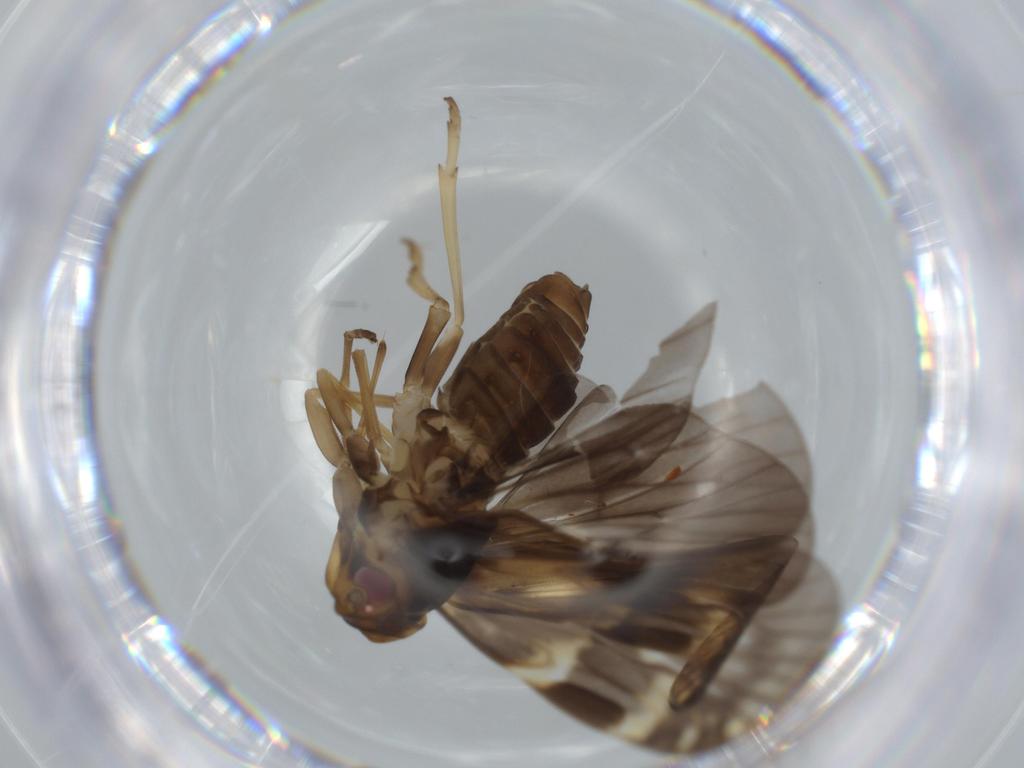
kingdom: Animalia
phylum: Arthropoda
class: Insecta
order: Hemiptera
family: Cixiidae
